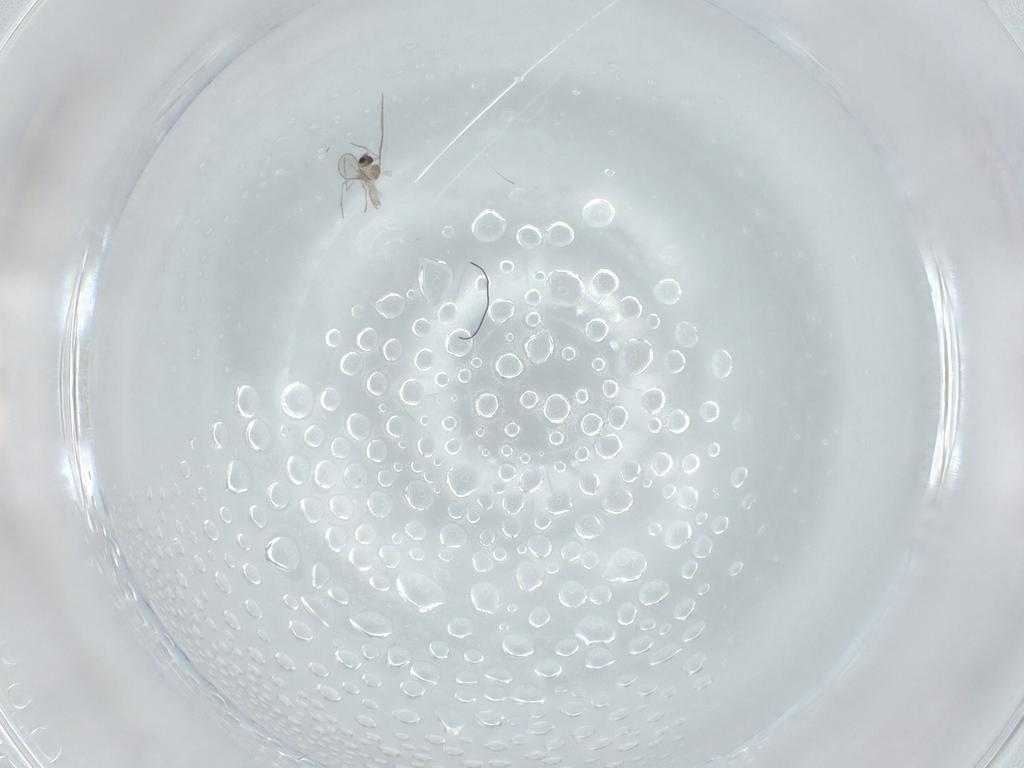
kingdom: Animalia
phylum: Arthropoda
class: Insecta
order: Diptera
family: Cecidomyiidae
